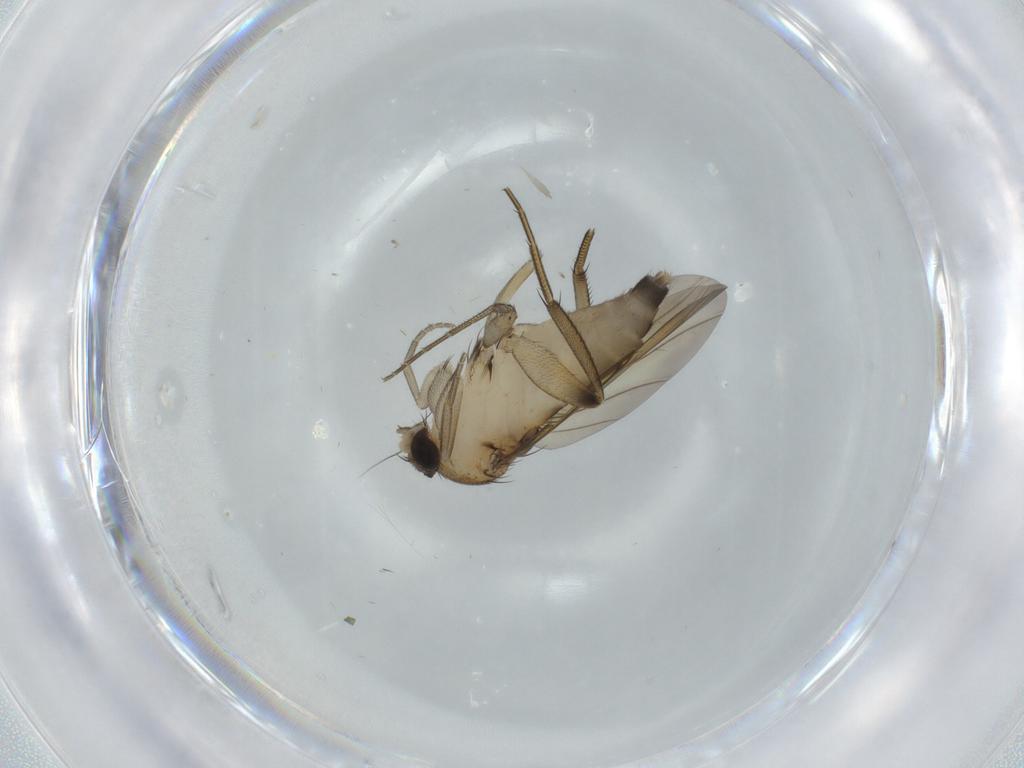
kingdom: Animalia
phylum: Arthropoda
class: Insecta
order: Diptera
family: Phoridae
